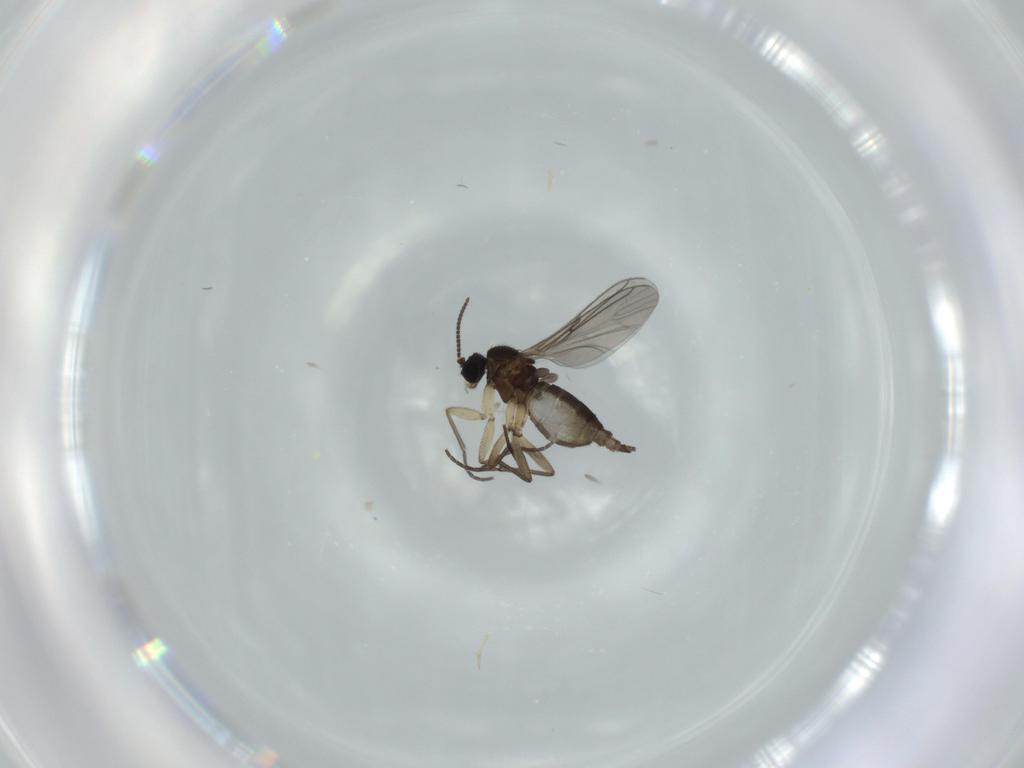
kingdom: Animalia
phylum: Arthropoda
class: Insecta
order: Diptera
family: Sciaridae
